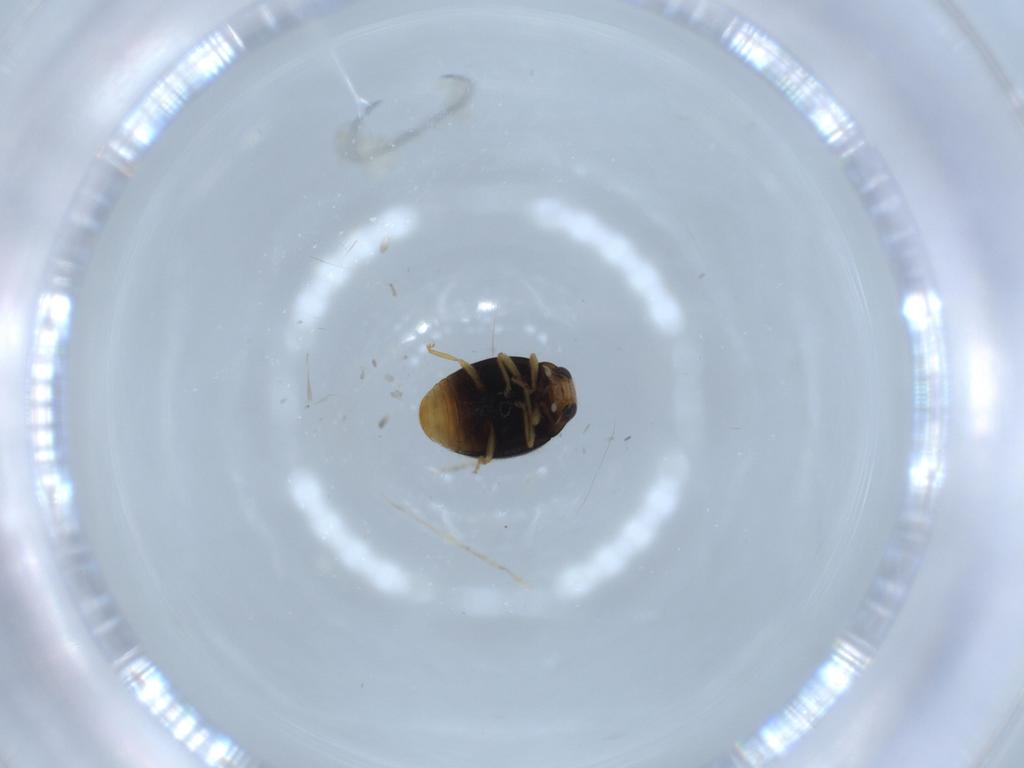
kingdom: Animalia
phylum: Arthropoda
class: Insecta
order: Coleoptera
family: Coccinellidae
